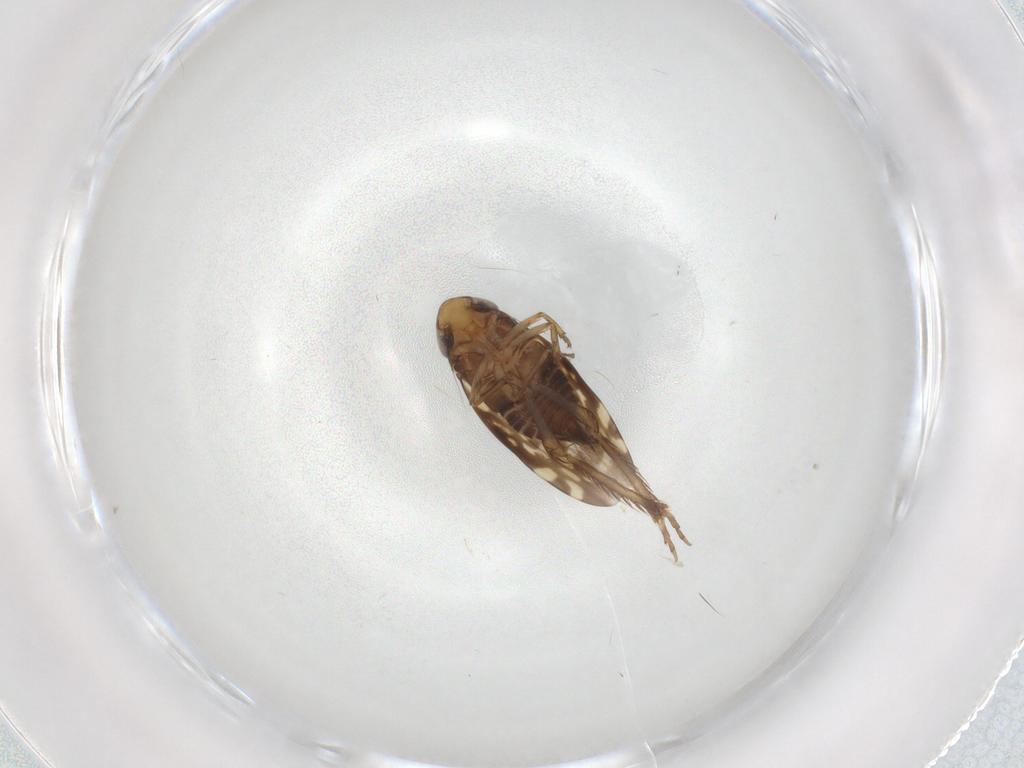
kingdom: Animalia
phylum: Arthropoda
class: Insecta
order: Hemiptera
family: Cicadellidae
